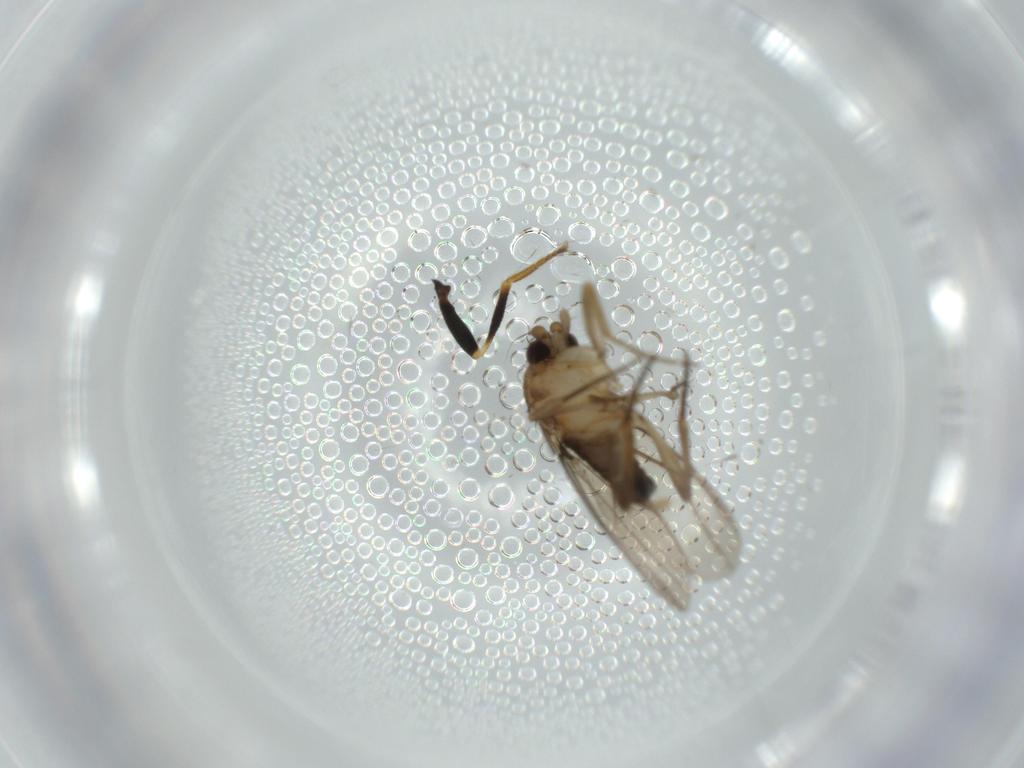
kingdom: Animalia
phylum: Arthropoda
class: Insecta
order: Diptera
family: Phoridae
